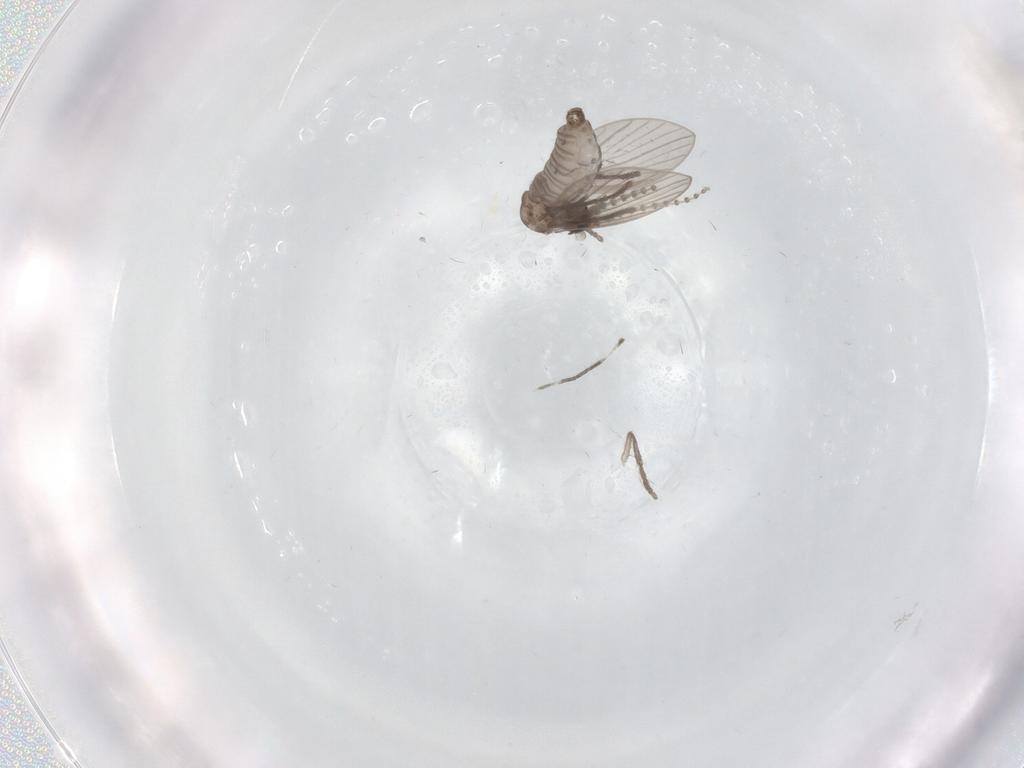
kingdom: Animalia
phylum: Arthropoda
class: Insecta
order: Diptera
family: Psychodidae
